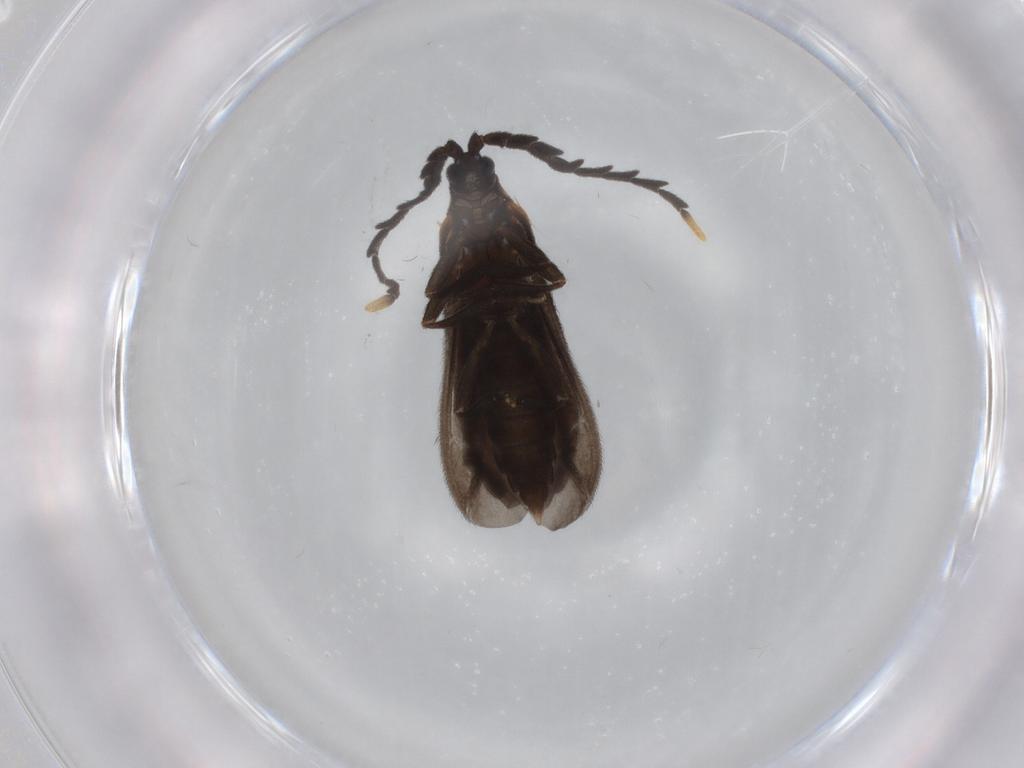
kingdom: Animalia
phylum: Arthropoda
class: Insecta
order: Coleoptera
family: Lycidae
